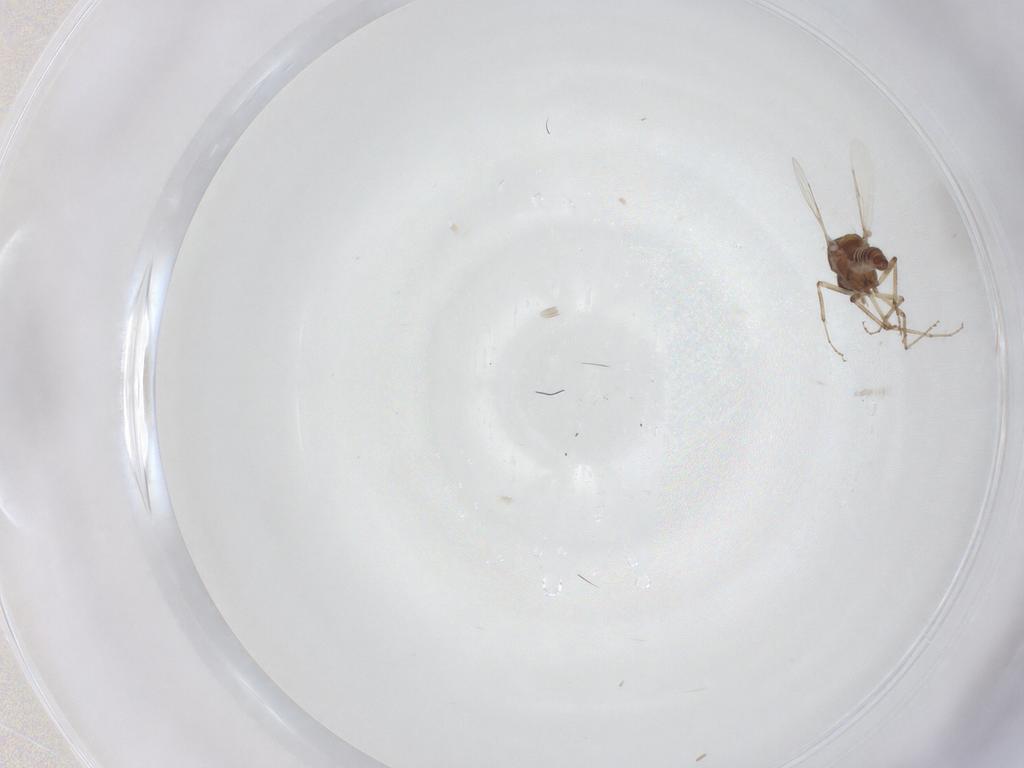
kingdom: Animalia
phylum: Arthropoda
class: Insecta
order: Diptera
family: Ceratopogonidae
